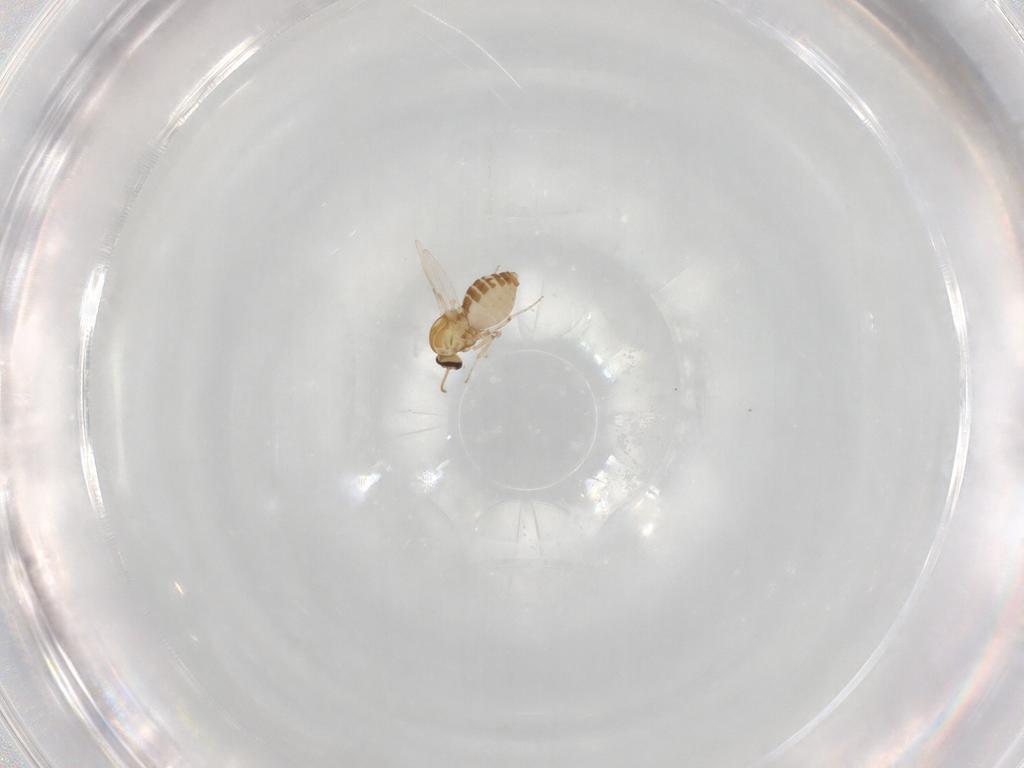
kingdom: Animalia
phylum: Arthropoda
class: Insecta
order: Diptera
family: Ceratopogonidae
